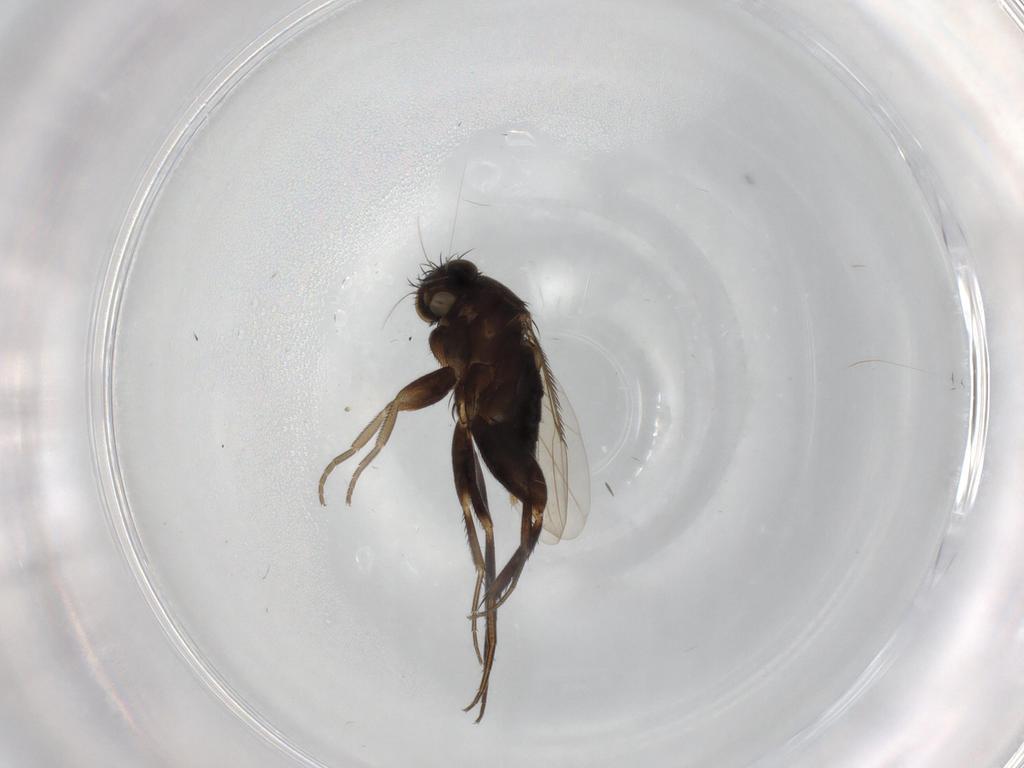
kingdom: Animalia
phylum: Arthropoda
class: Insecta
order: Diptera
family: Phoridae
